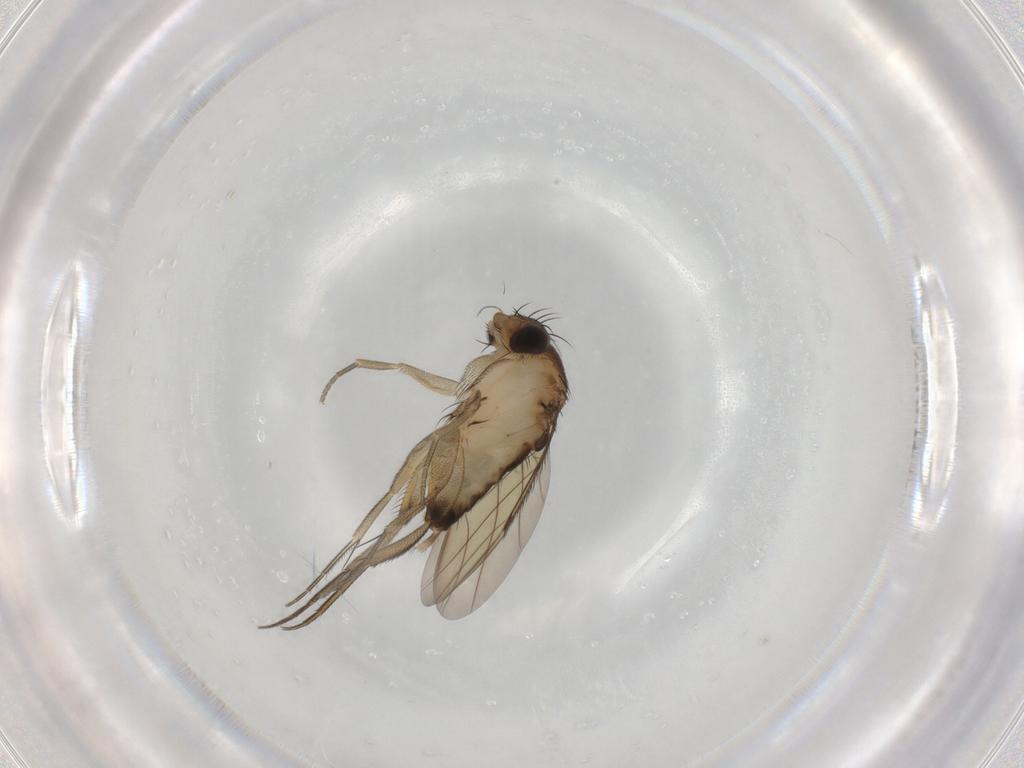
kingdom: Animalia
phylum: Arthropoda
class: Insecta
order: Diptera
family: Phoridae
